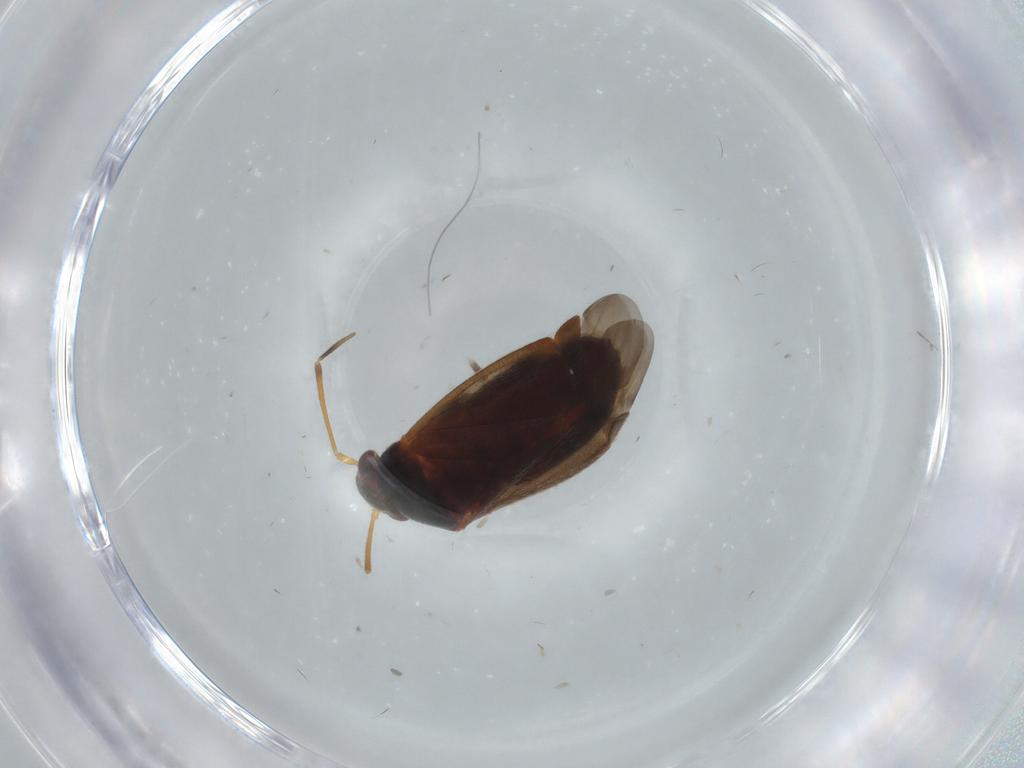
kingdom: Animalia
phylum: Arthropoda
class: Insecta
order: Hemiptera
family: Miridae
